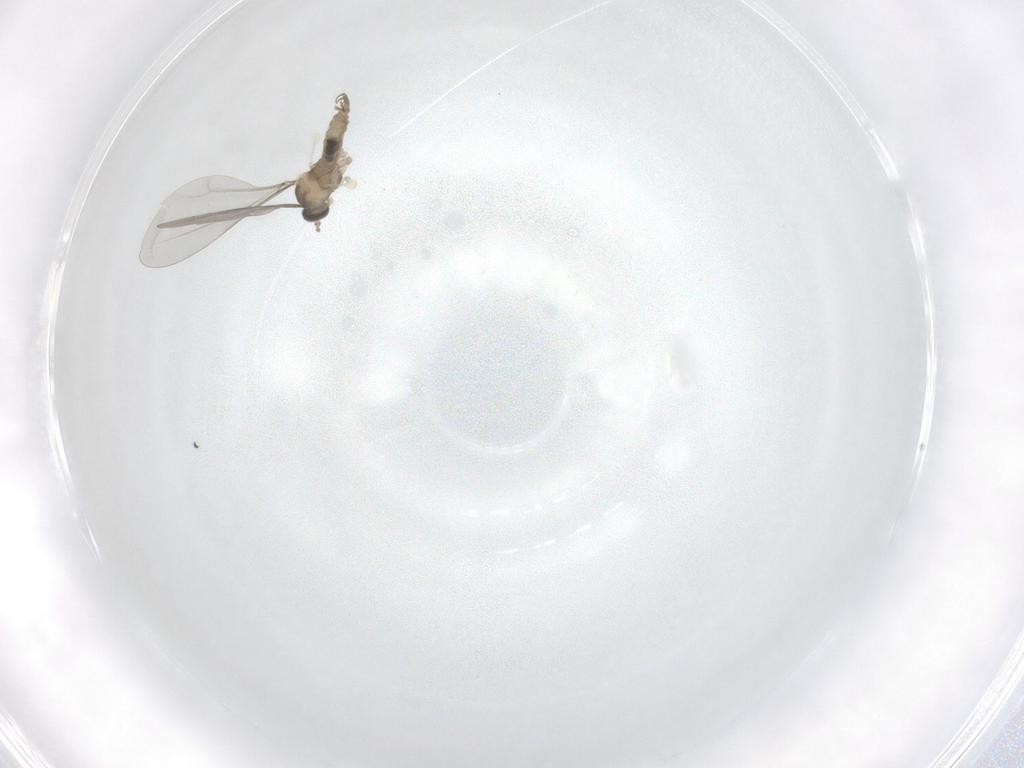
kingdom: Animalia
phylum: Arthropoda
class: Insecta
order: Diptera
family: Cecidomyiidae
